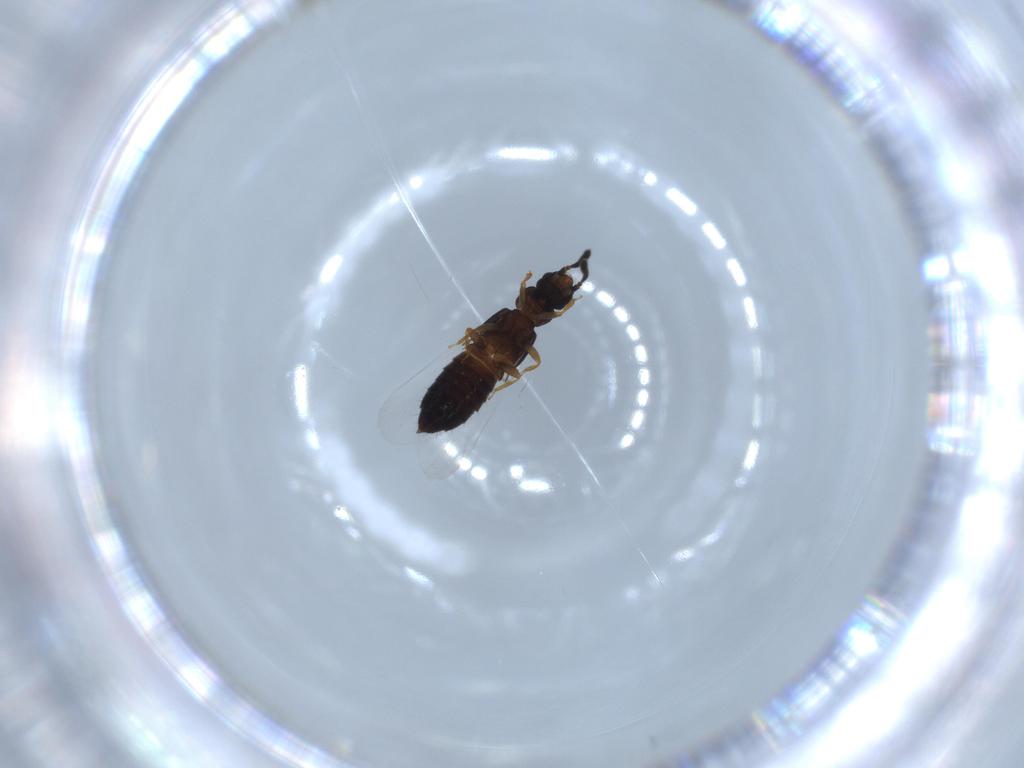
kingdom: Animalia
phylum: Arthropoda
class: Insecta
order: Coleoptera
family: Staphylinidae
